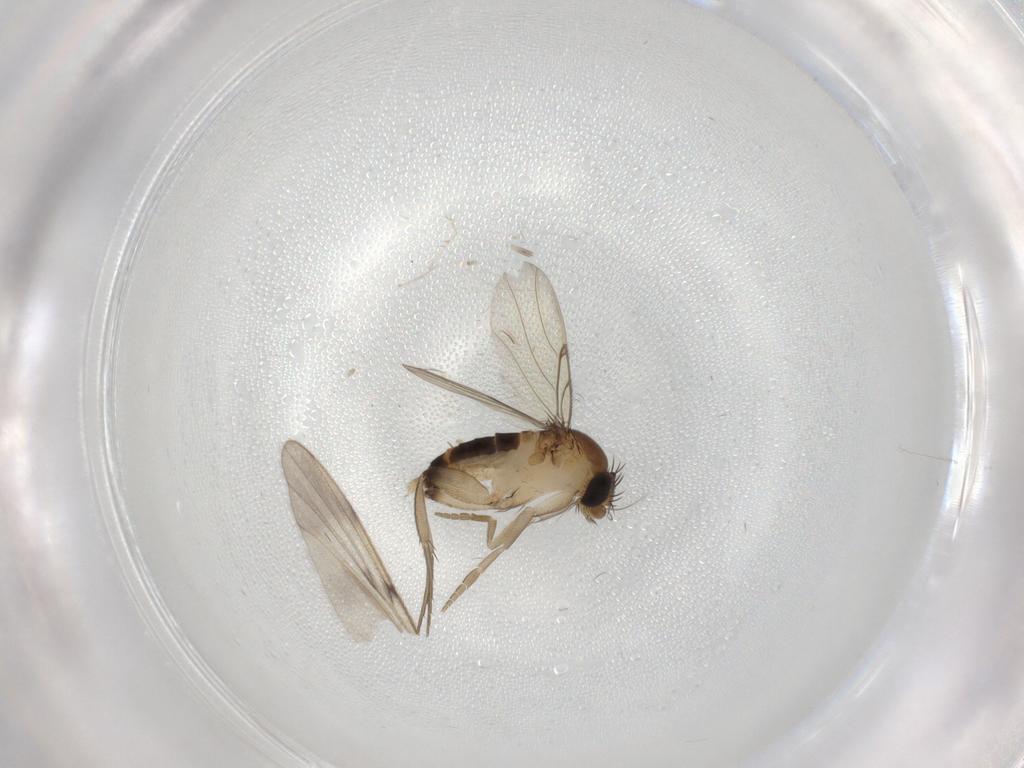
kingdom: Animalia
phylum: Arthropoda
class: Insecta
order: Diptera
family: Phoridae
